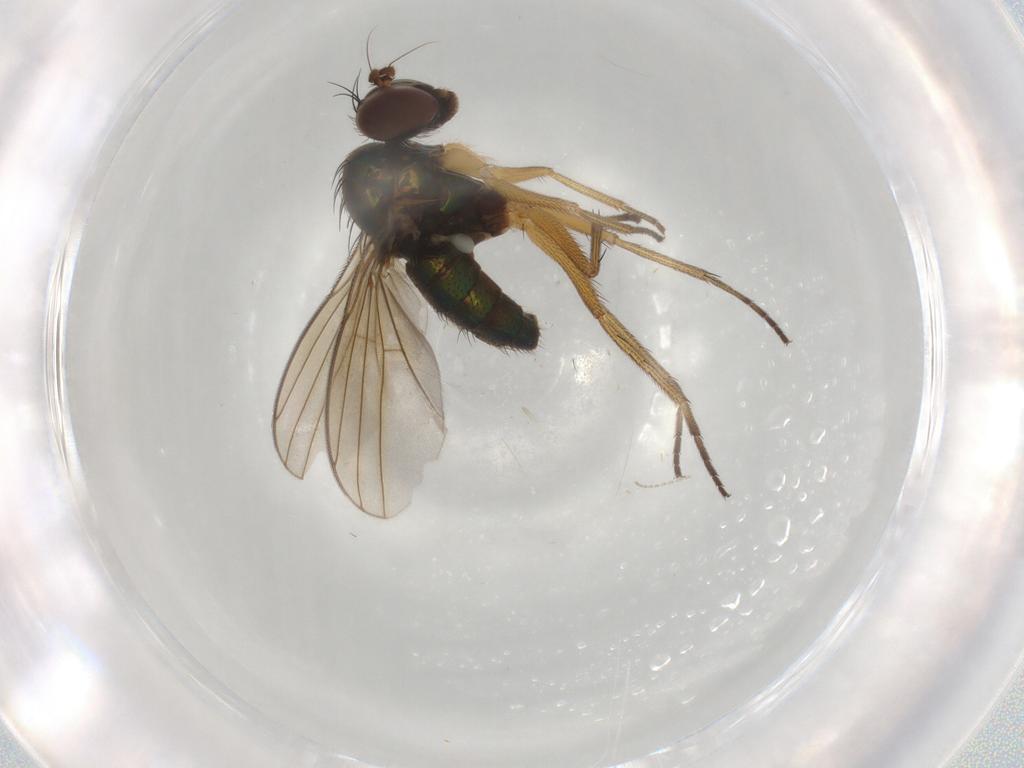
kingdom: Animalia
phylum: Arthropoda
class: Insecta
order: Diptera
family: Dolichopodidae
